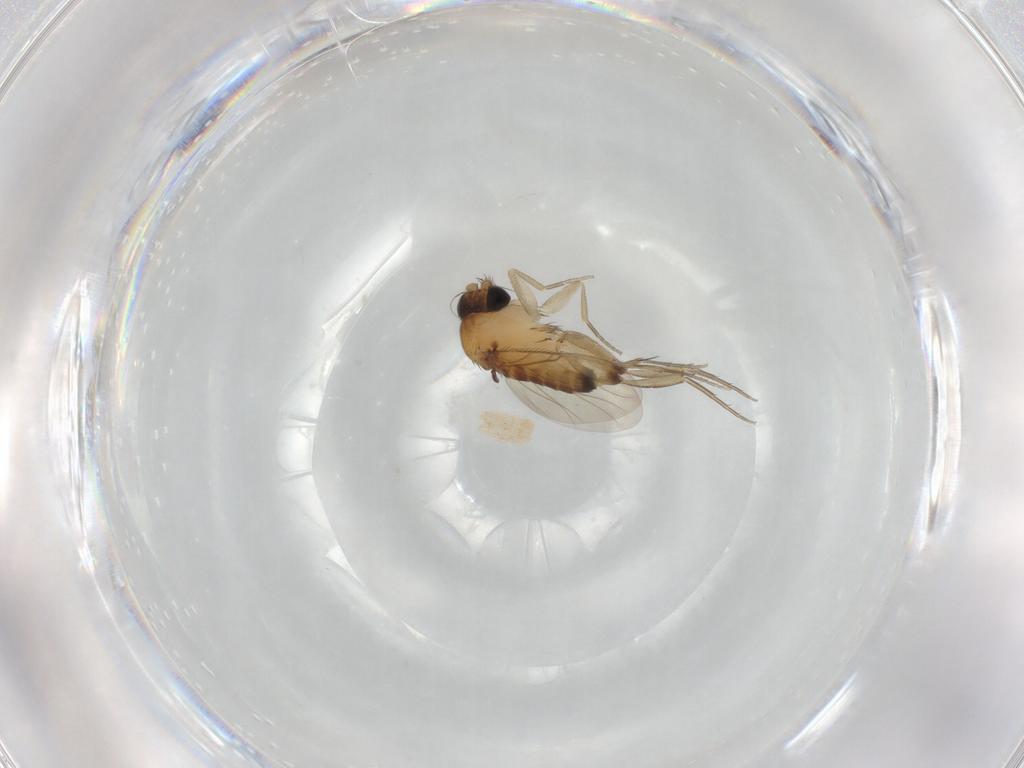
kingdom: Animalia
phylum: Arthropoda
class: Insecta
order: Diptera
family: Phoridae
